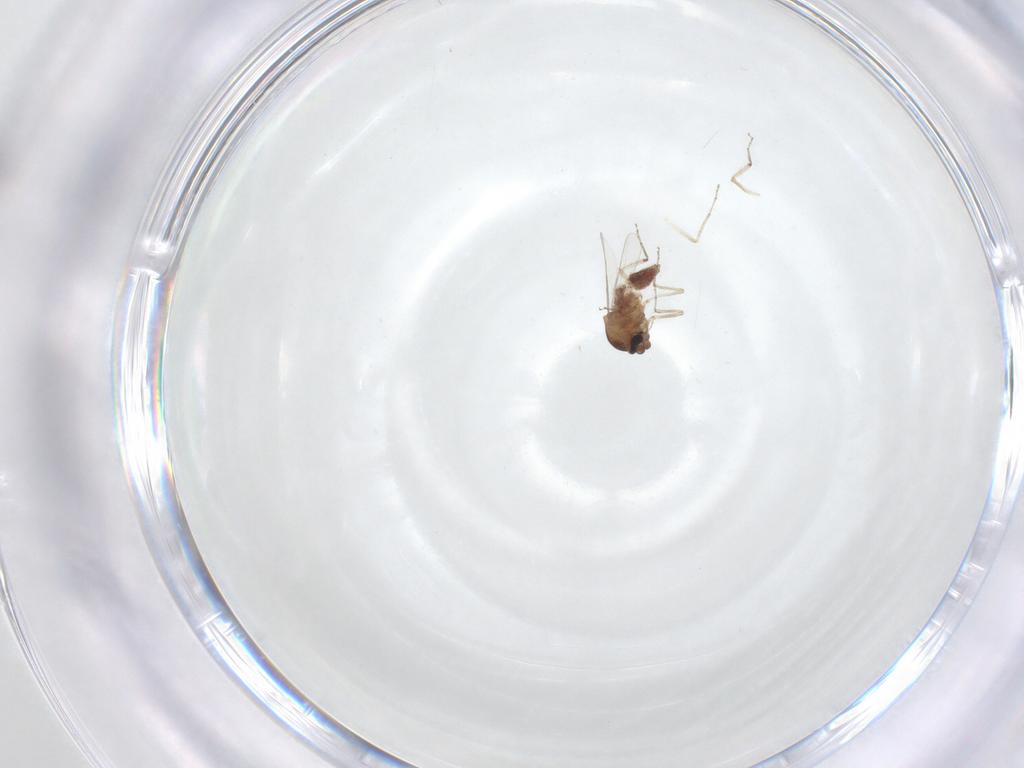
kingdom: Animalia
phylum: Arthropoda
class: Insecta
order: Diptera
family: Ceratopogonidae
